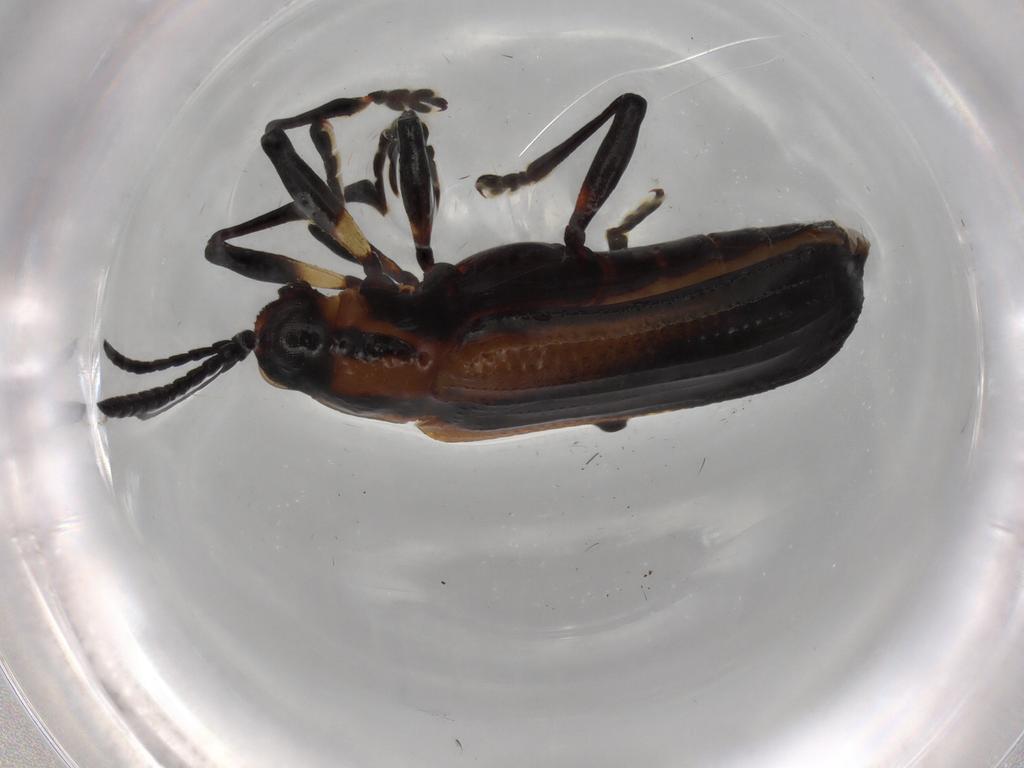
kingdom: Animalia
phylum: Arthropoda
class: Insecta
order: Coleoptera
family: Chrysomelidae
